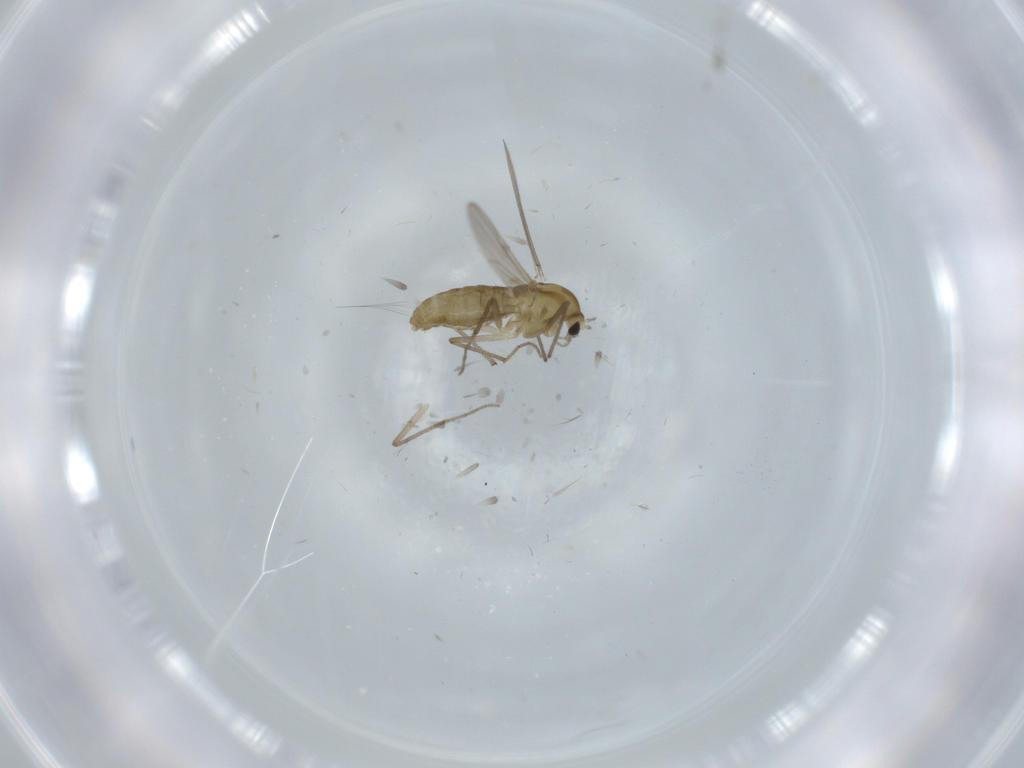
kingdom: Animalia
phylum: Arthropoda
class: Insecta
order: Diptera
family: Chironomidae
